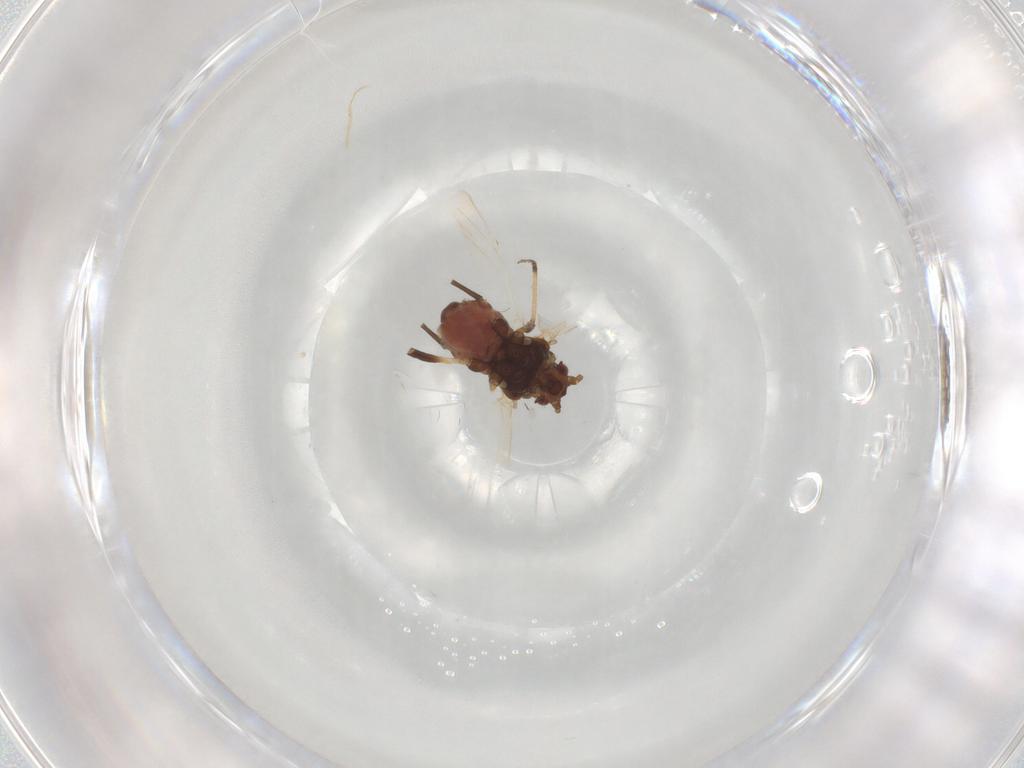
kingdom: Animalia
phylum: Arthropoda
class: Insecta
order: Hemiptera
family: Aphididae
